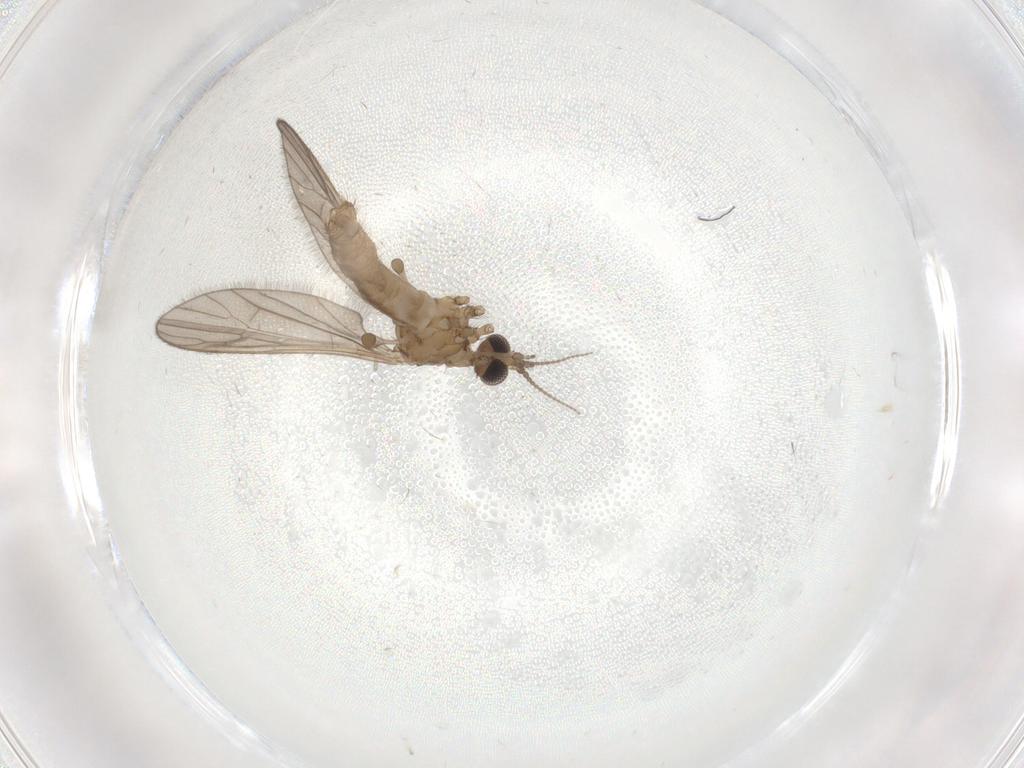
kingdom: Animalia
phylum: Arthropoda
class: Insecta
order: Diptera
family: Limoniidae
